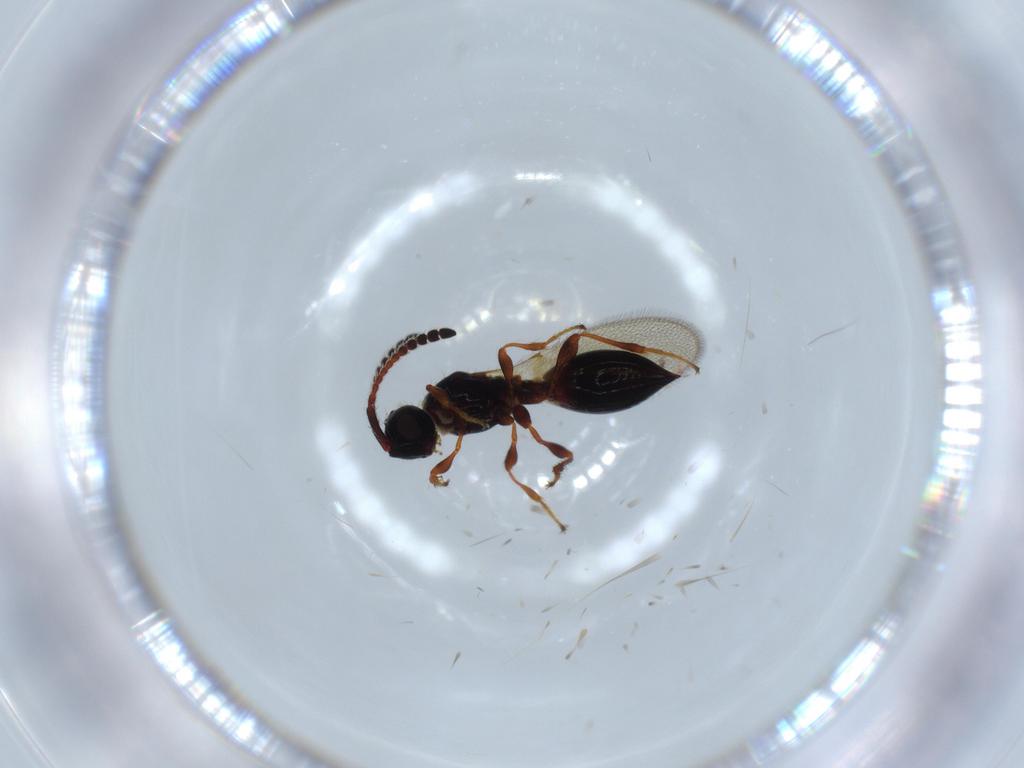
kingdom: Animalia
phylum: Arthropoda
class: Insecta
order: Hymenoptera
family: Diapriidae
